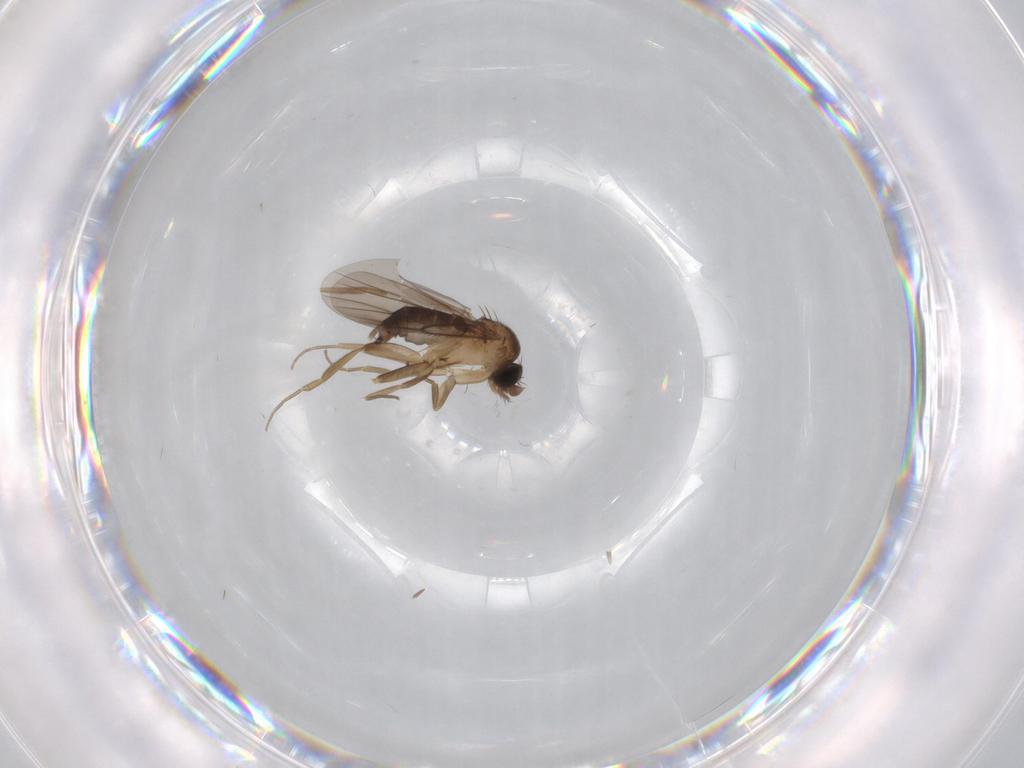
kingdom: Animalia
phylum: Arthropoda
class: Insecta
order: Diptera
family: Phoridae
